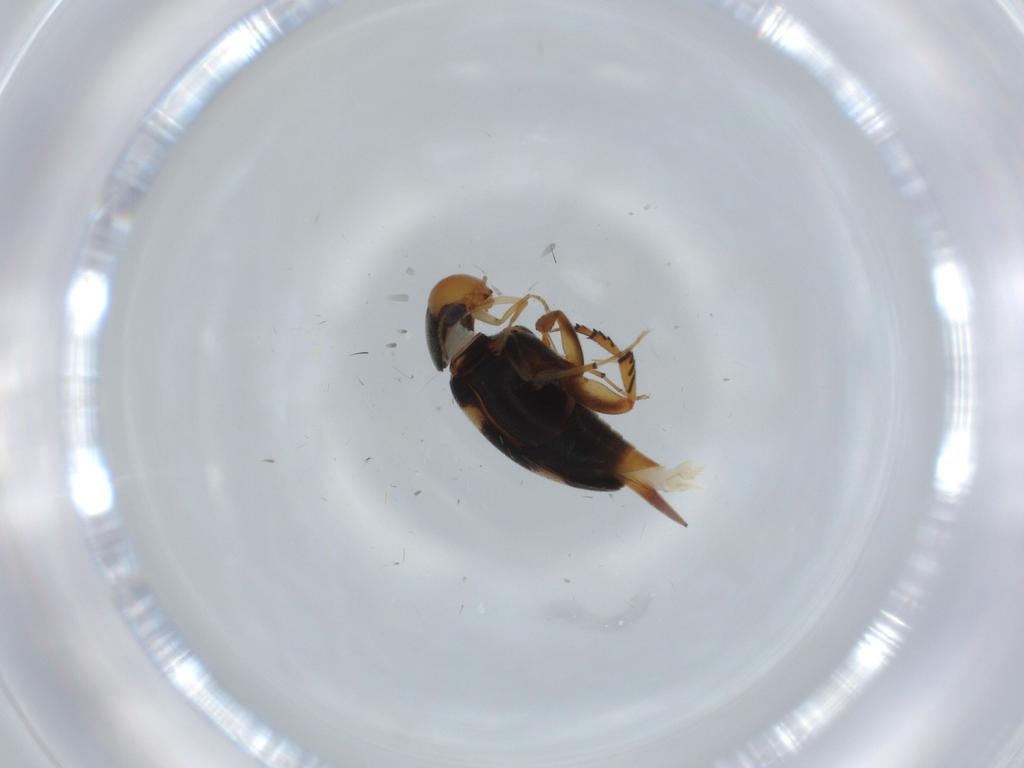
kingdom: Animalia
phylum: Arthropoda
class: Insecta
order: Coleoptera
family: Mordellidae
